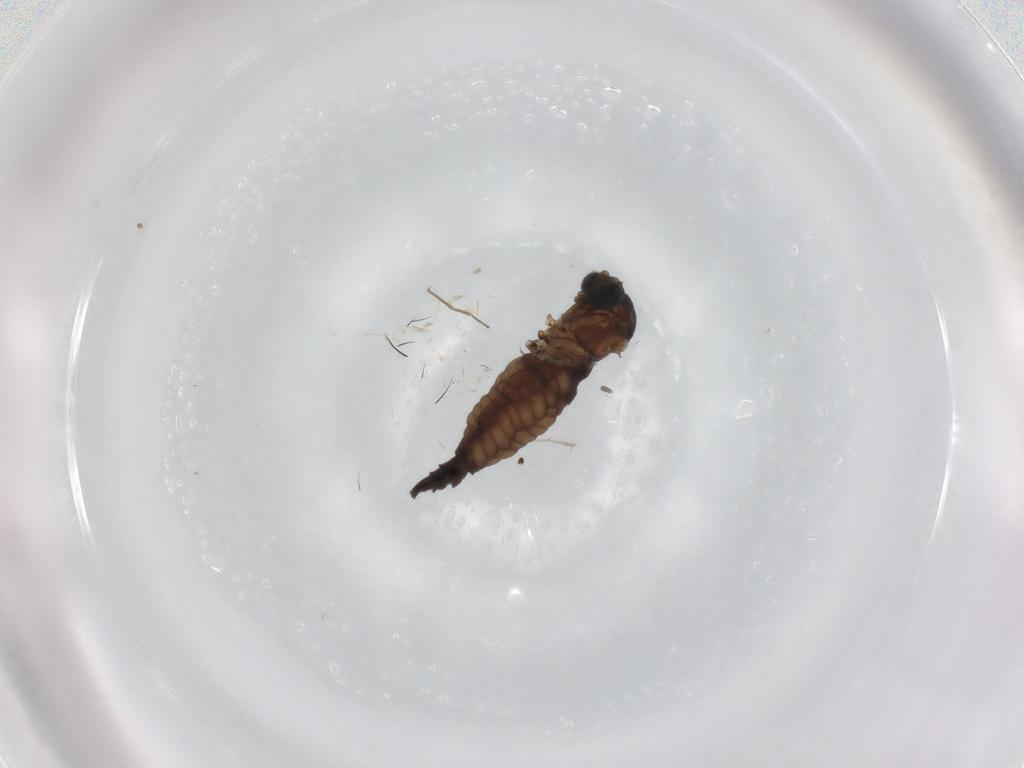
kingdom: Animalia
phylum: Arthropoda
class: Insecta
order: Diptera
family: Sciaridae
